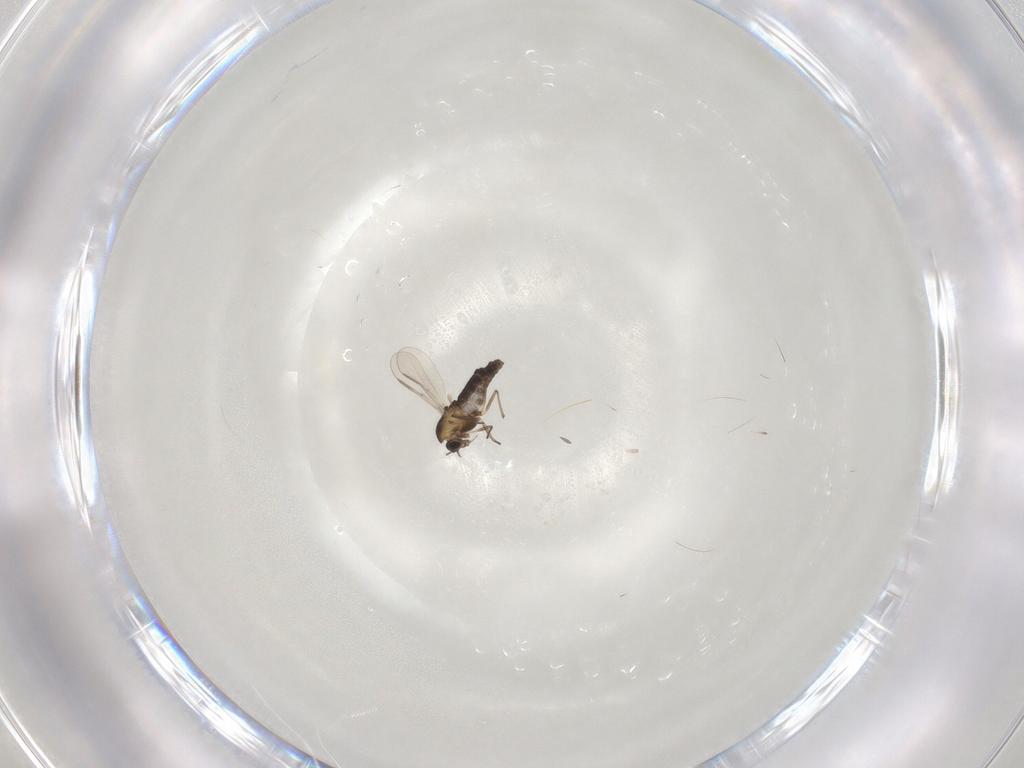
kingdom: Animalia
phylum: Arthropoda
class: Insecta
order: Diptera
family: Chironomidae
